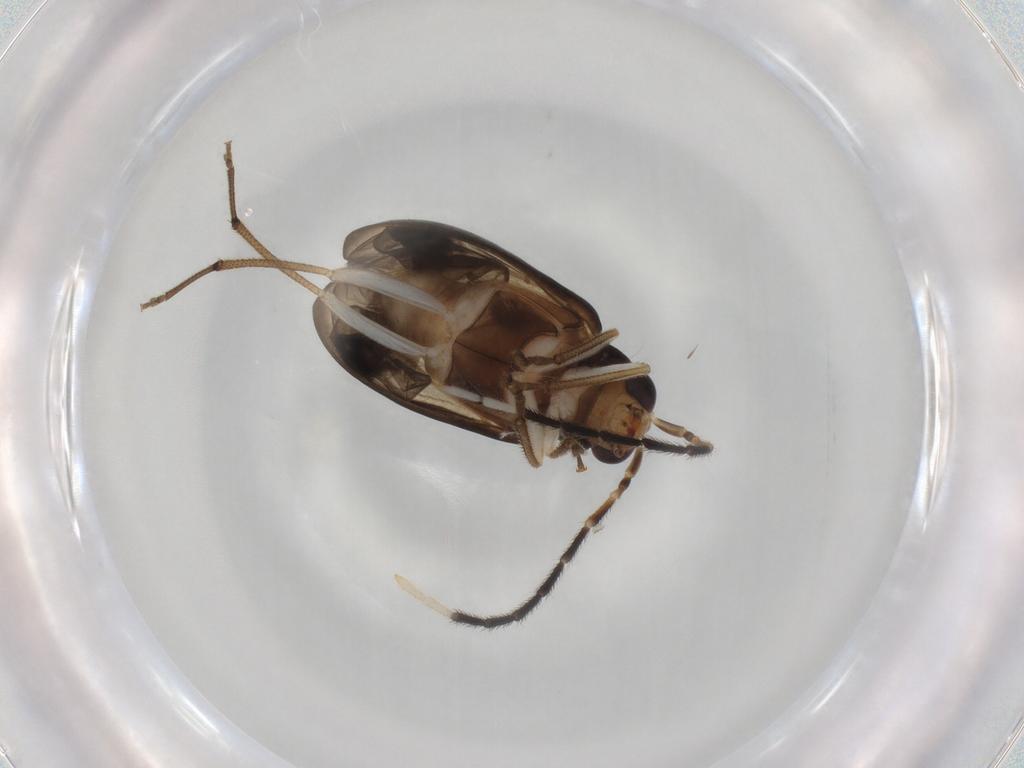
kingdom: Animalia
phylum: Arthropoda
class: Insecta
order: Coleoptera
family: Chrysomelidae
